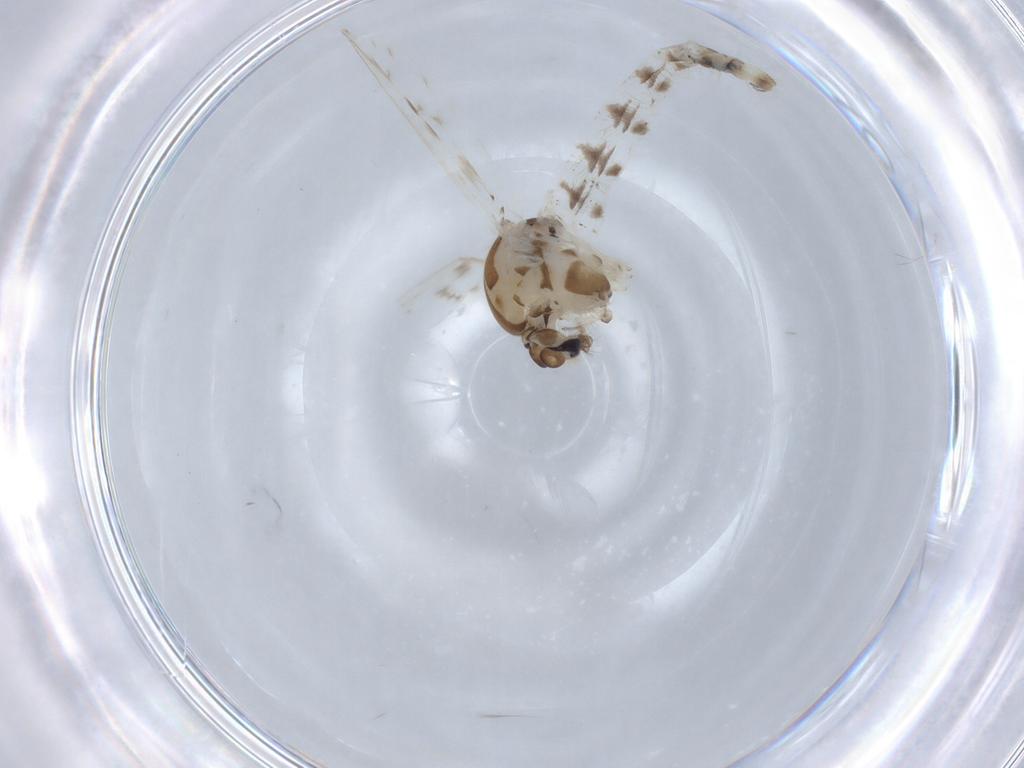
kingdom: Animalia
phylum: Arthropoda
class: Insecta
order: Diptera
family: Chaoboridae
